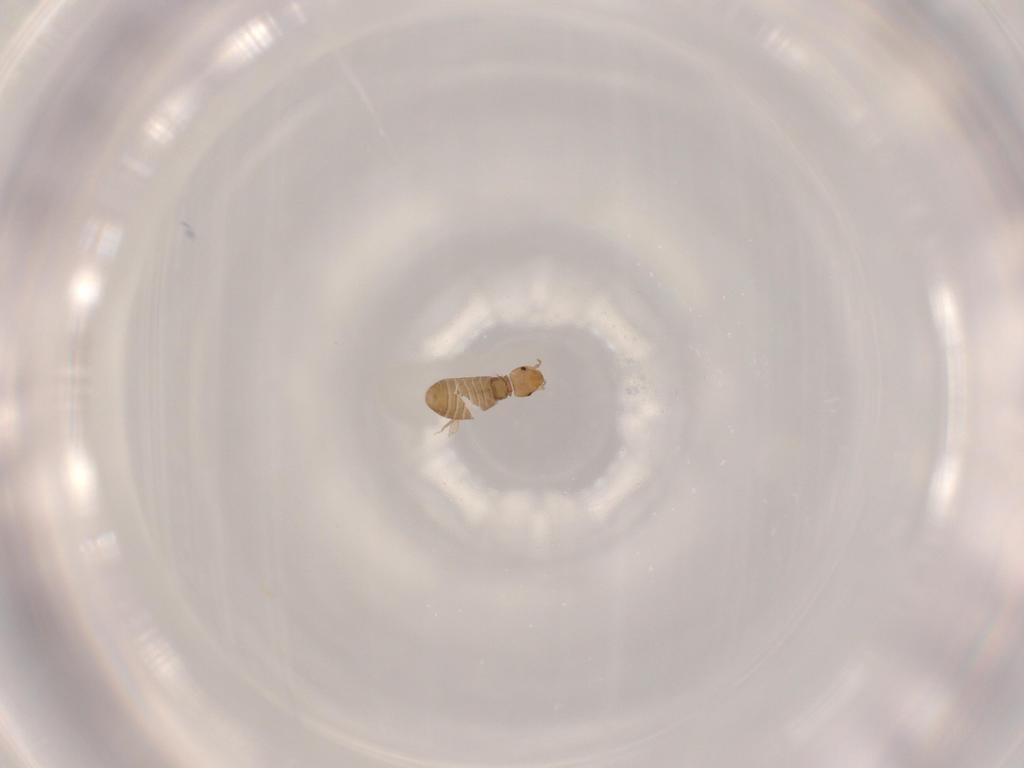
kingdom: Animalia
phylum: Arthropoda
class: Insecta
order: Psocodea
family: Liposcelididae
